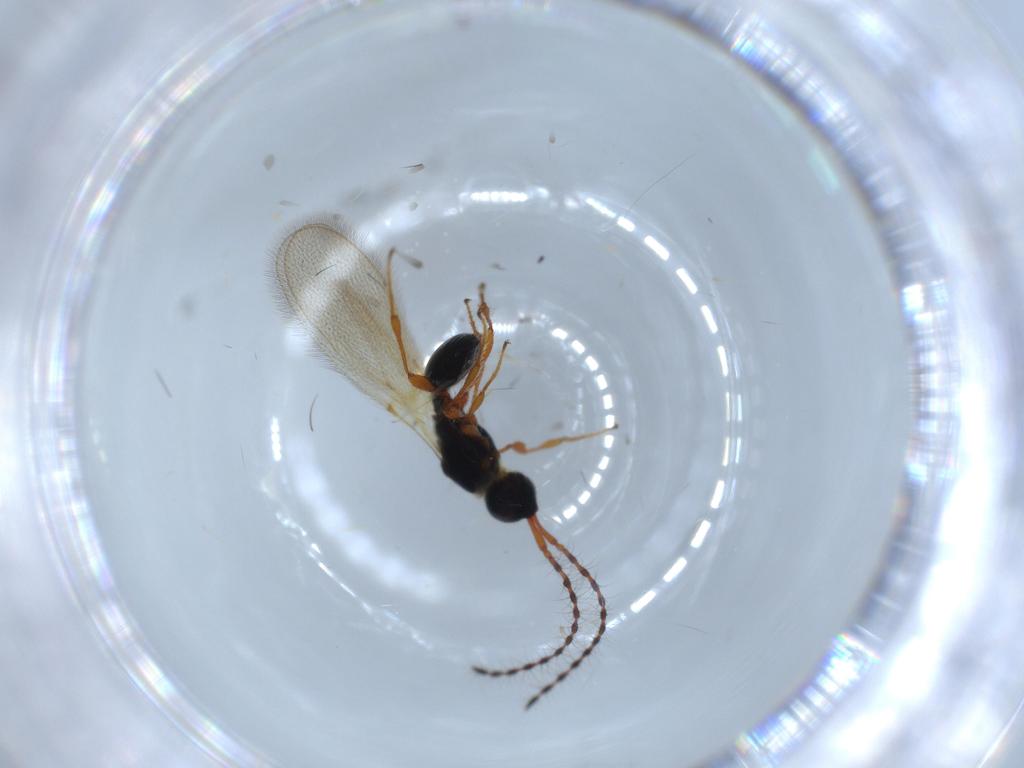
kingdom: Animalia
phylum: Arthropoda
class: Insecta
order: Hymenoptera
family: Diapriidae
